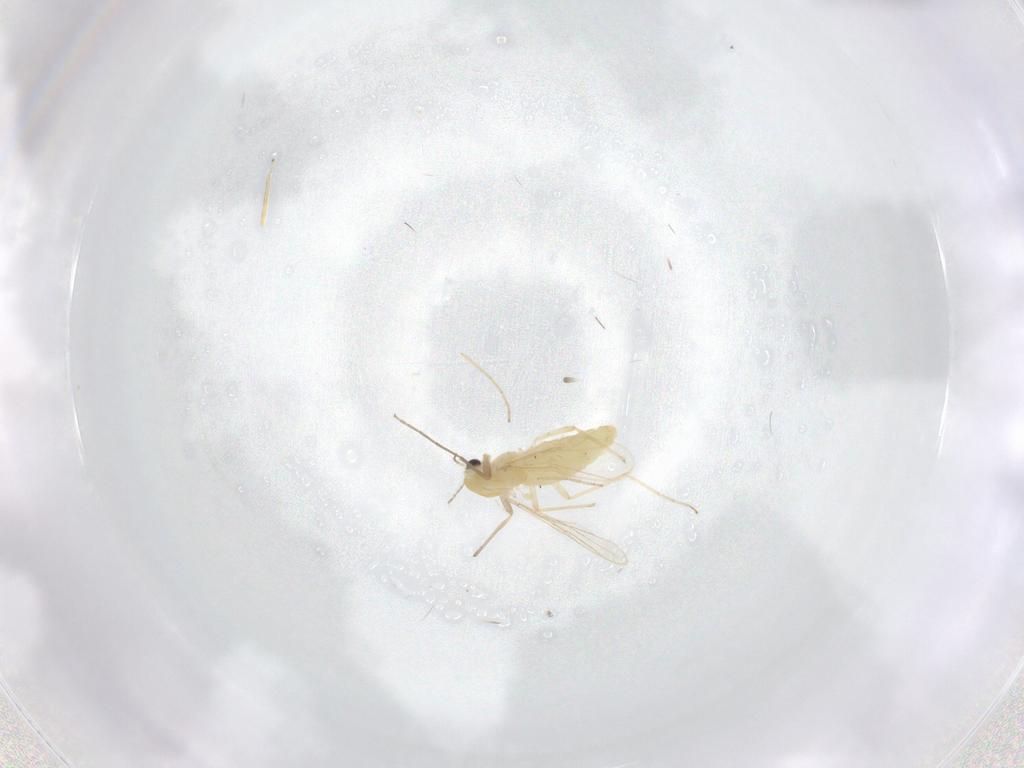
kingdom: Animalia
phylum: Arthropoda
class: Insecta
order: Diptera
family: Chironomidae
